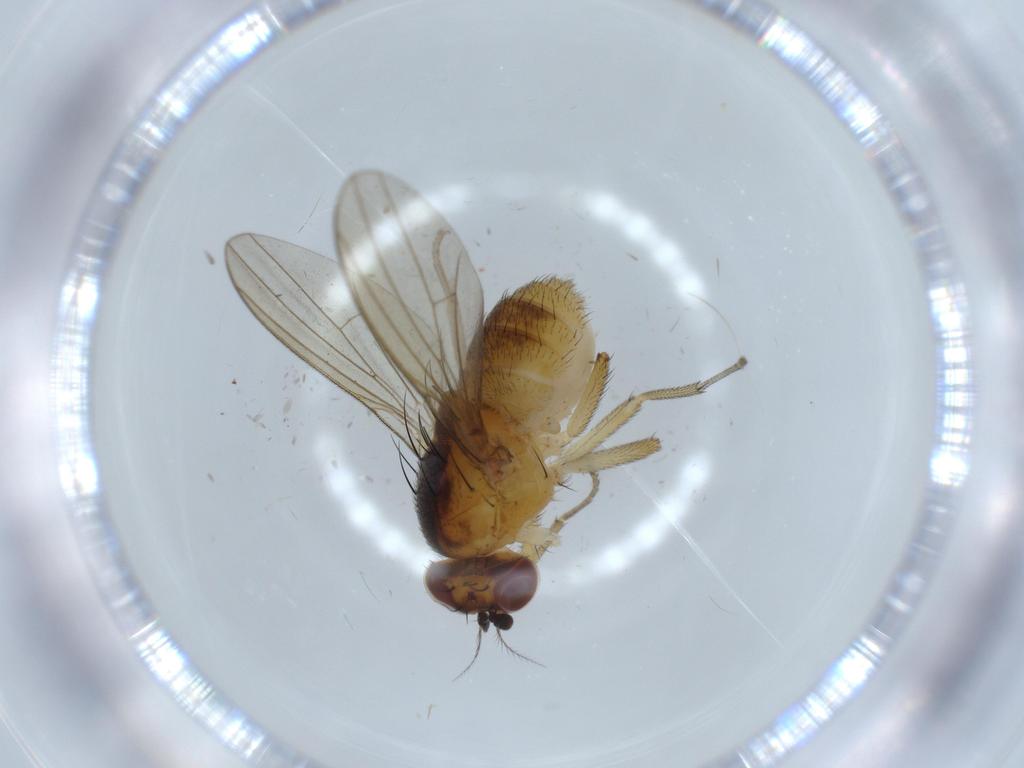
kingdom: Animalia
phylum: Arthropoda
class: Insecta
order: Diptera
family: Lauxaniidae
